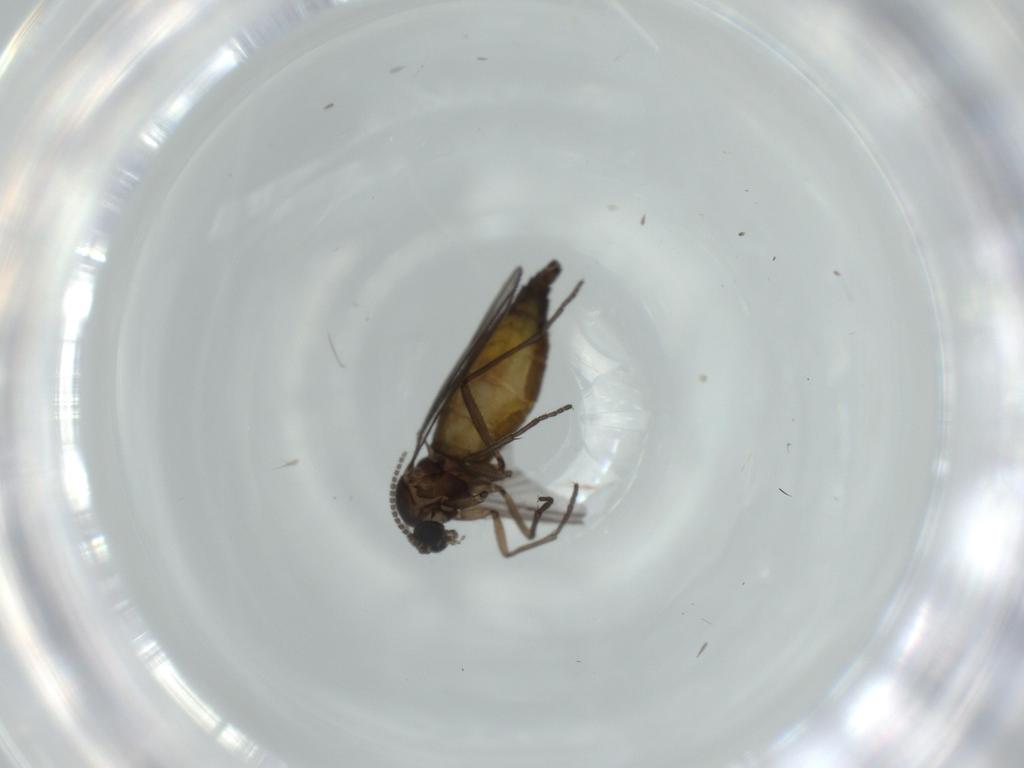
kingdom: Animalia
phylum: Arthropoda
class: Insecta
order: Diptera
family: Sciaridae
